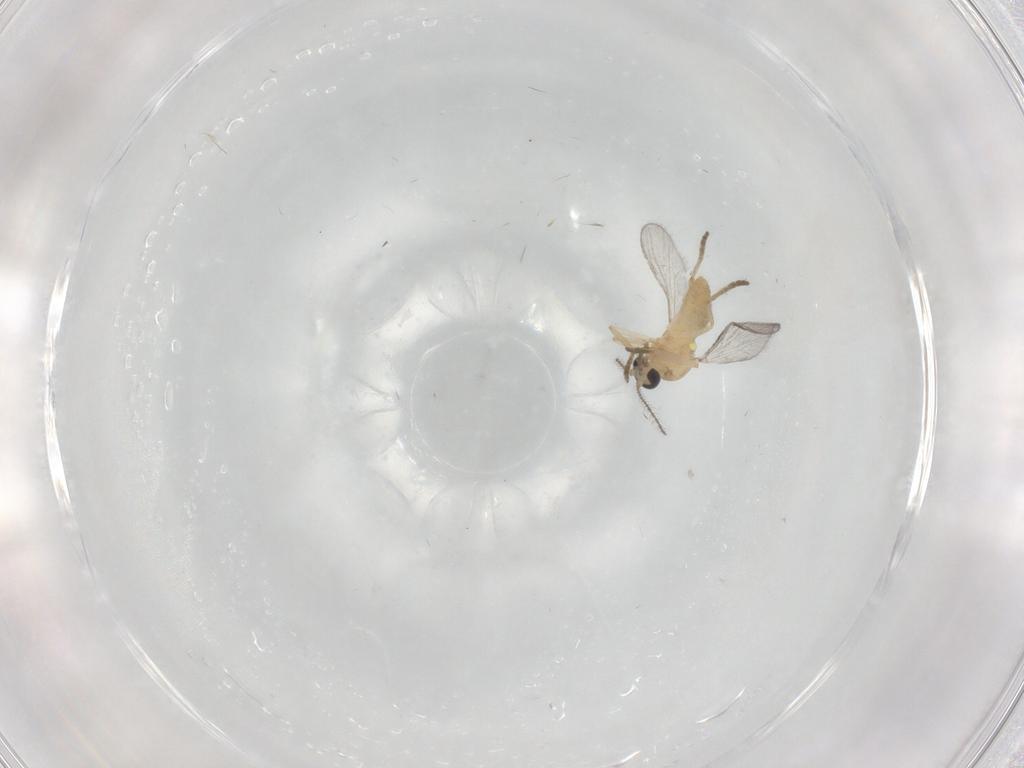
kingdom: Animalia
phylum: Arthropoda
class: Insecta
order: Diptera
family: Ceratopogonidae
